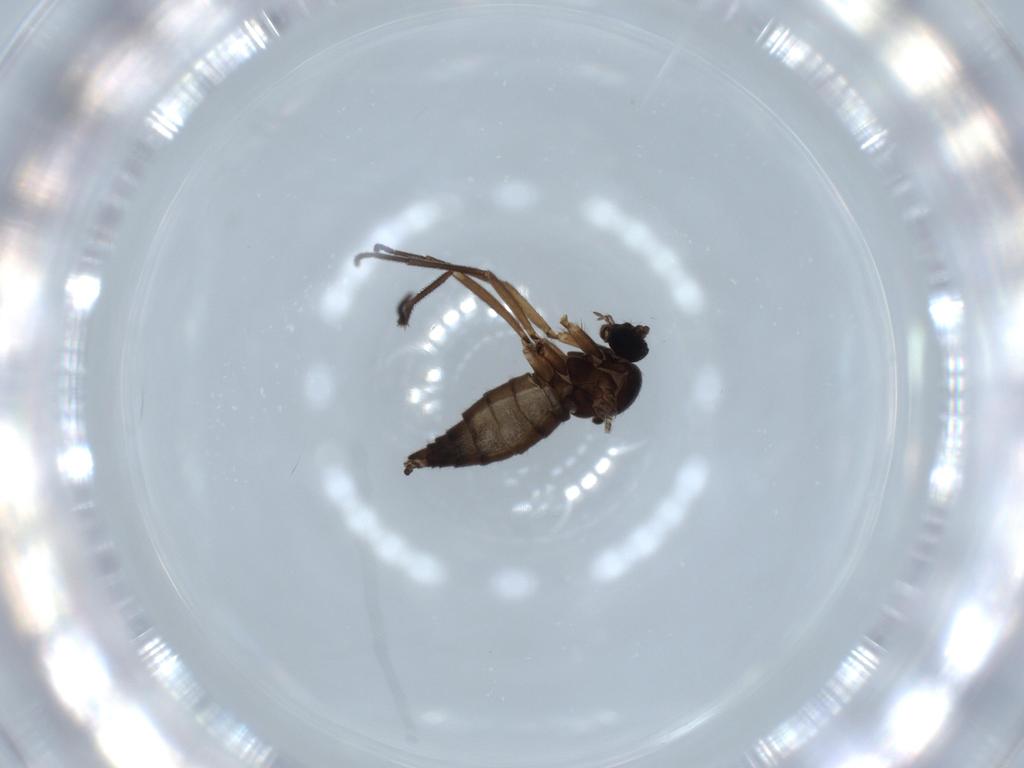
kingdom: Animalia
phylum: Arthropoda
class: Insecta
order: Diptera
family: Sciaridae
